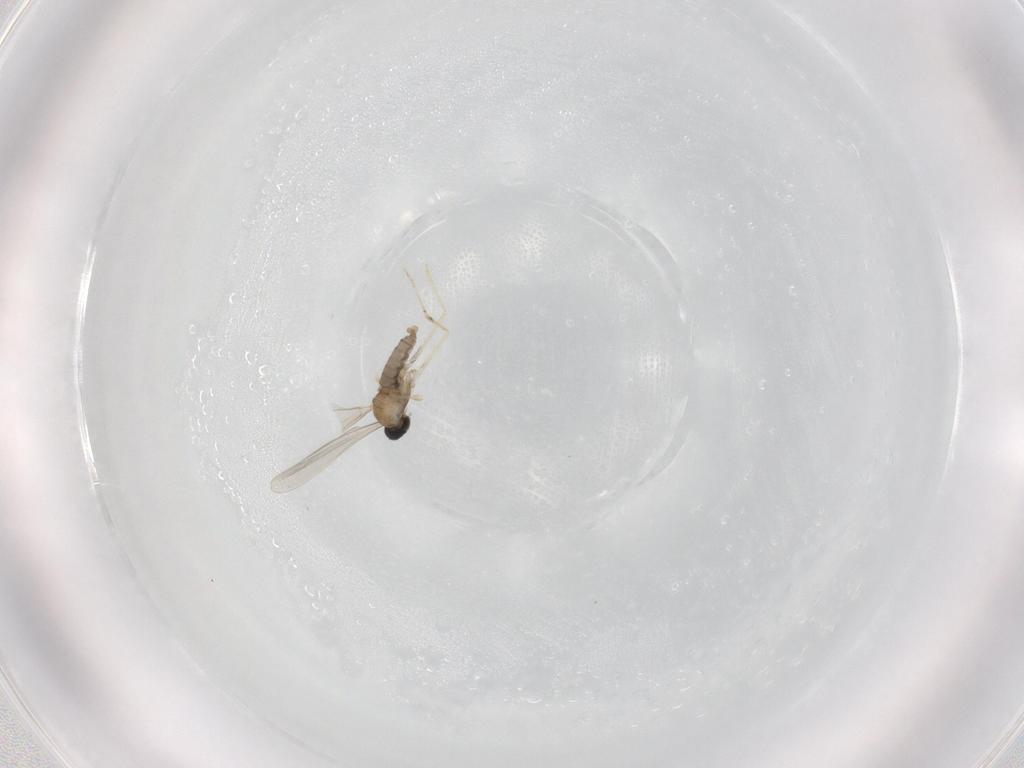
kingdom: Animalia
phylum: Arthropoda
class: Insecta
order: Diptera
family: Cecidomyiidae
